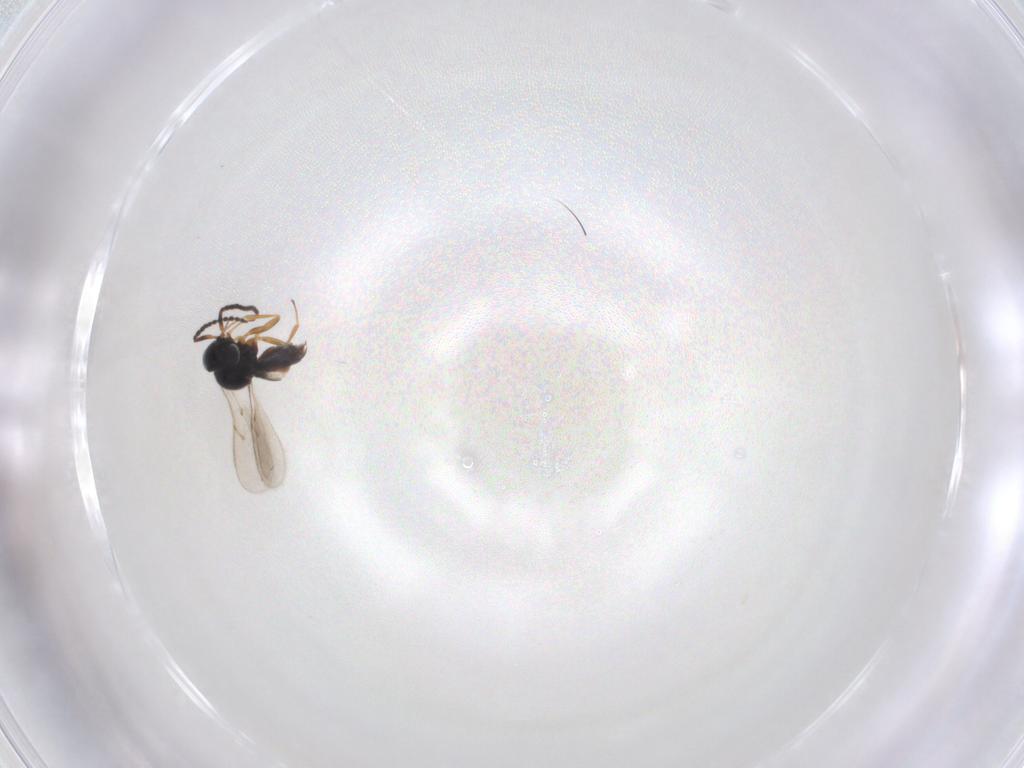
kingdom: Animalia
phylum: Arthropoda
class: Insecta
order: Hymenoptera
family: Scelionidae
